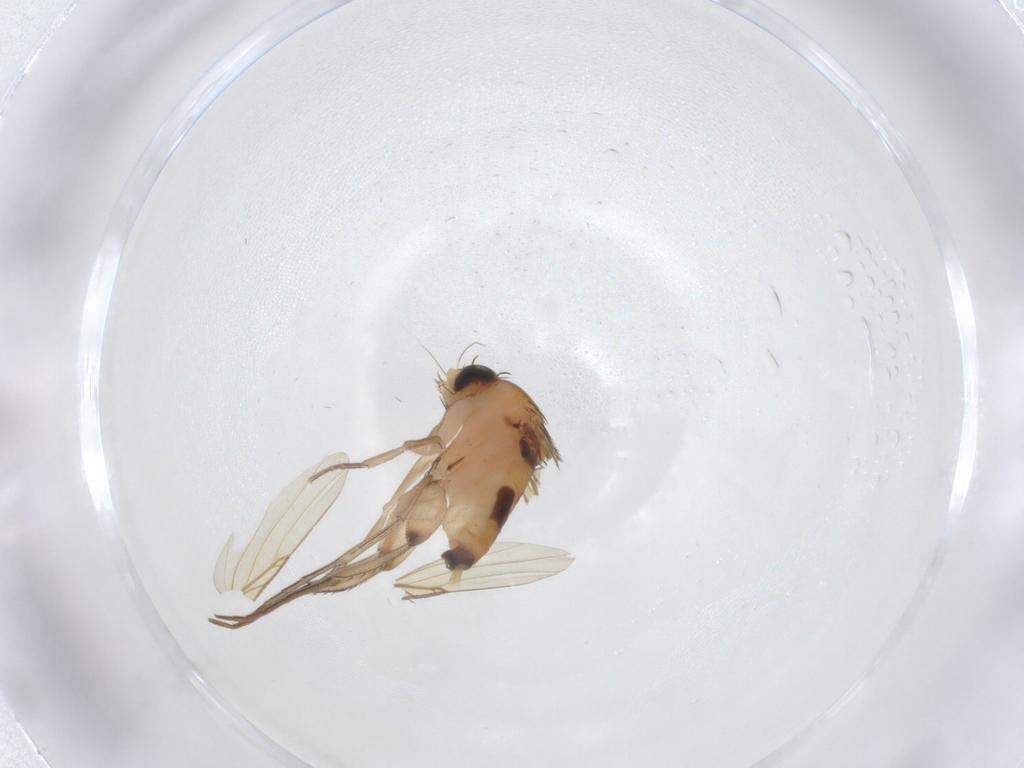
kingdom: Animalia
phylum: Arthropoda
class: Insecta
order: Diptera
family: Phoridae
